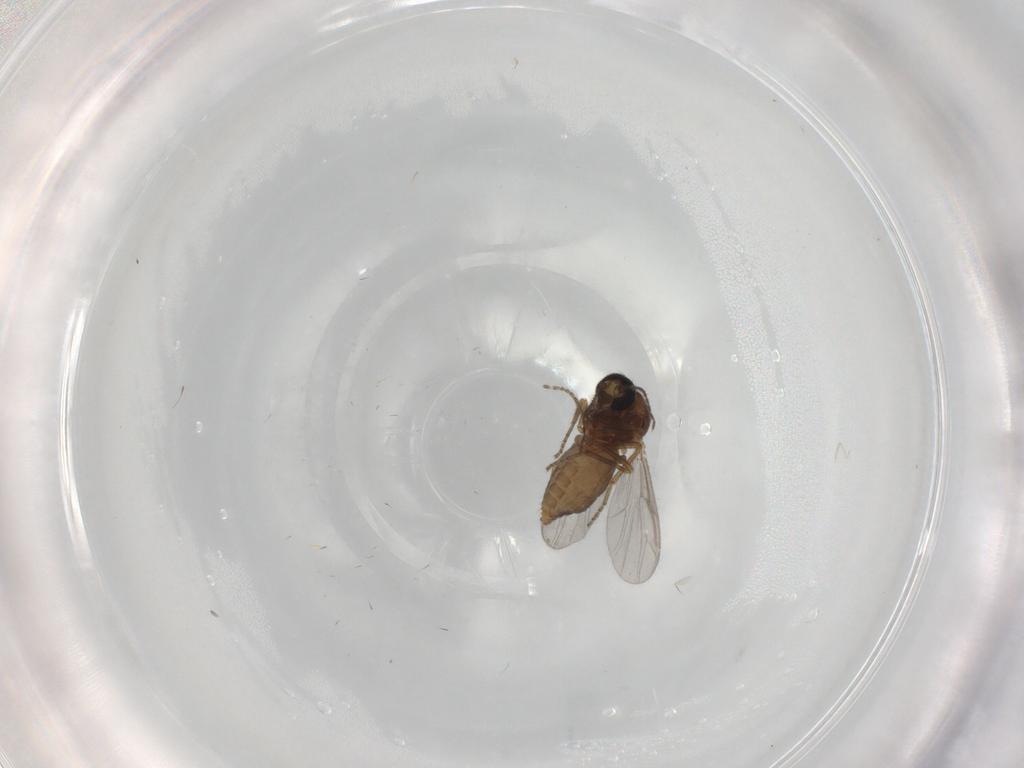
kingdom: Animalia
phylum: Arthropoda
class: Insecta
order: Diptera
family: Ceratopogonidae
